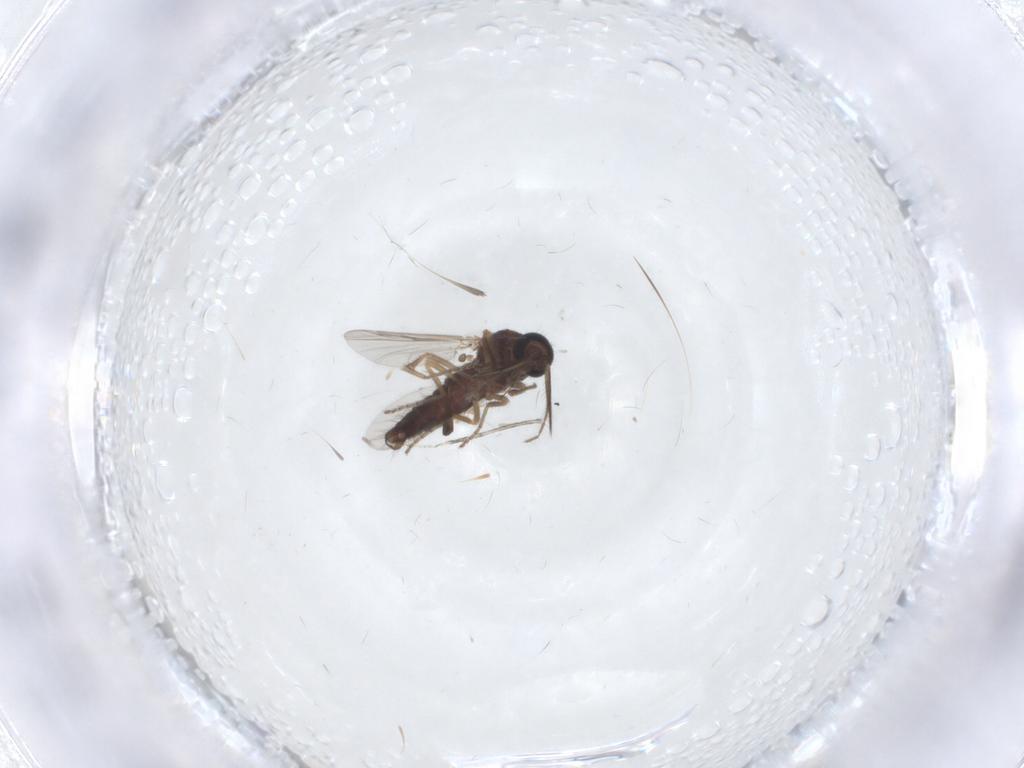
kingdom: Animalia
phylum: Arthropoda
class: Insecta
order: Diptera
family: Ceratopogonidae
